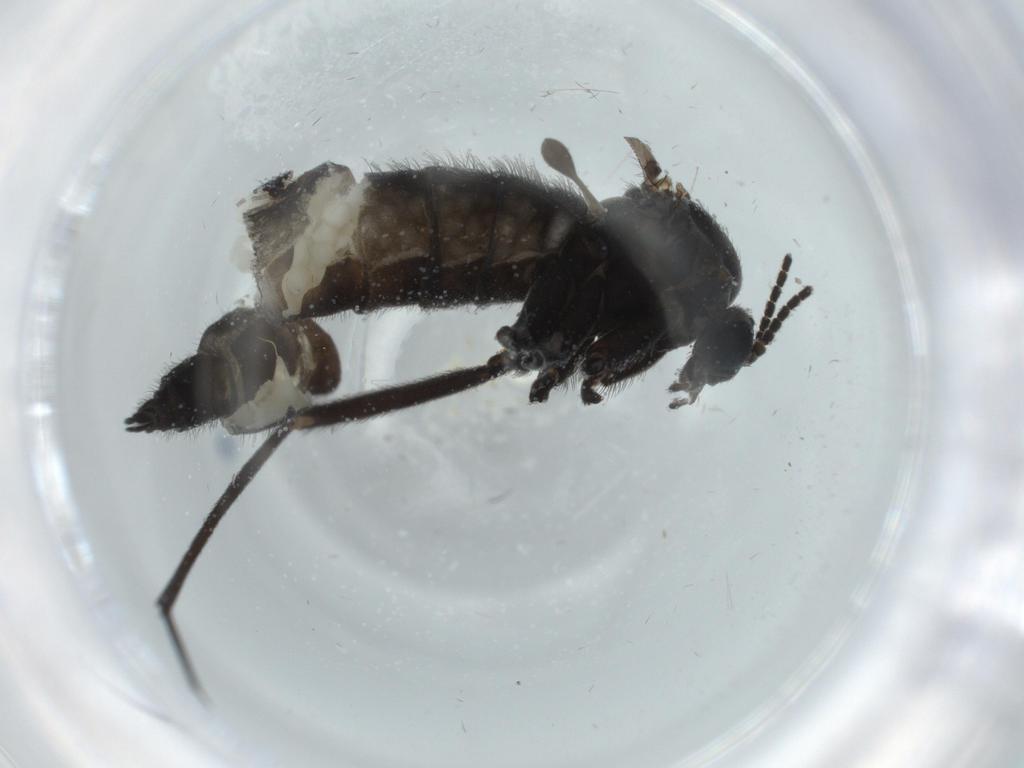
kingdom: Animalia
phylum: Arthropoda
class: Insecta
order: Diptera
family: Sciaridae
